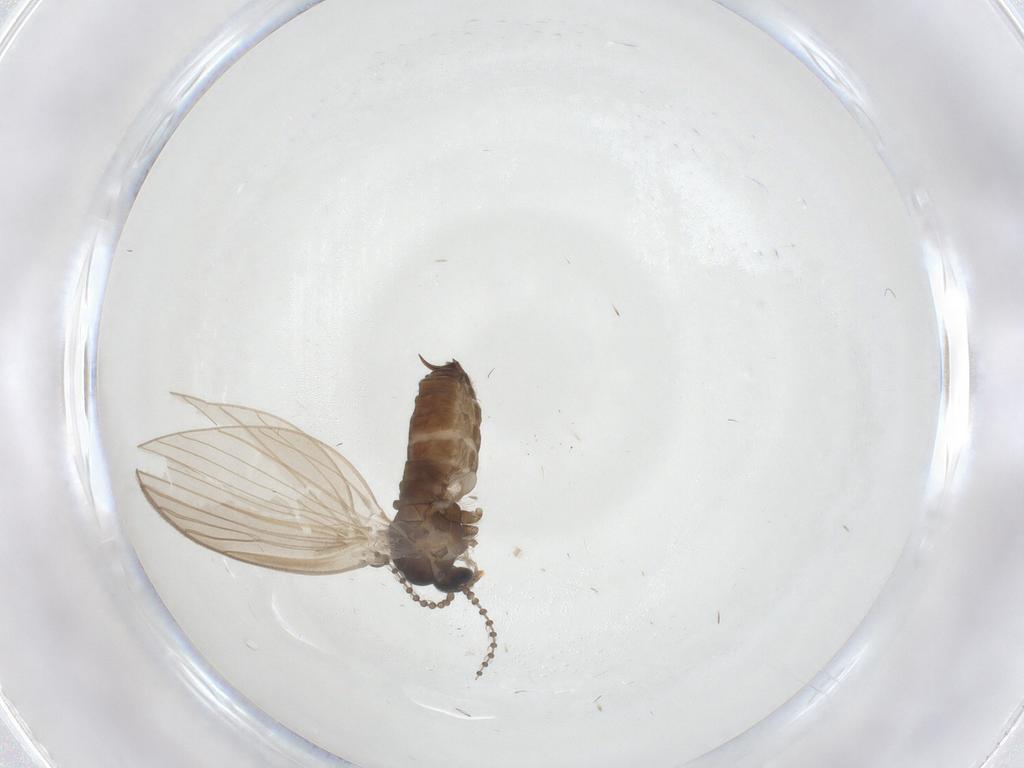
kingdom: Animalia
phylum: Arthropoda
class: Insecta
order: Diptera
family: Psychodidae
